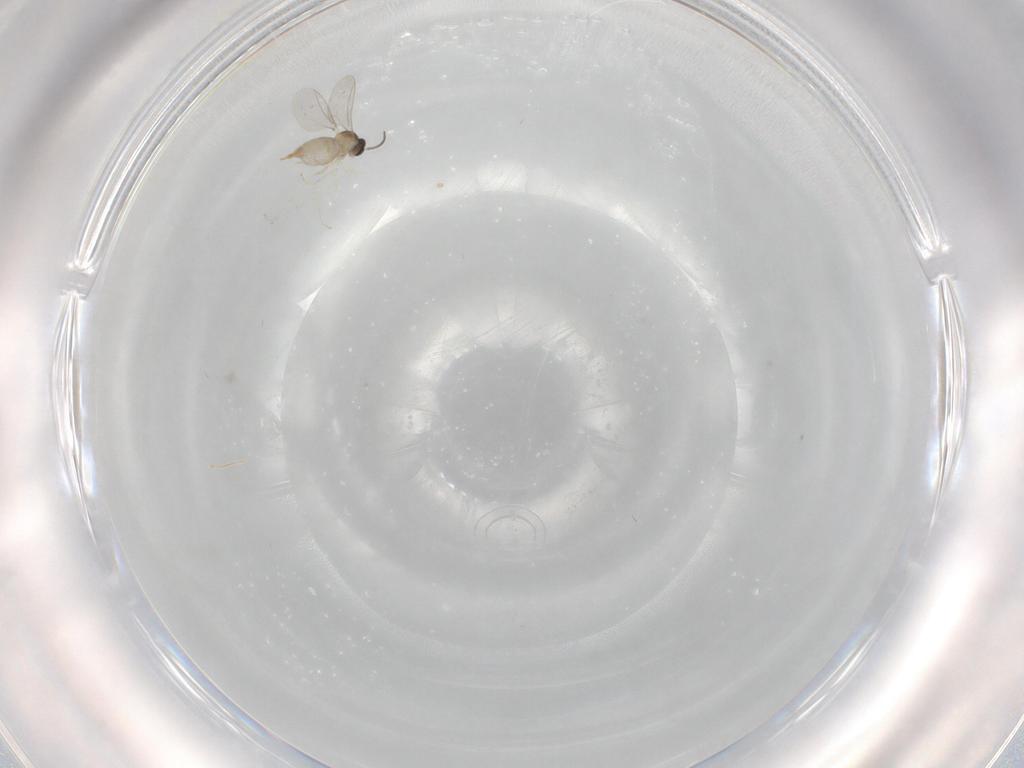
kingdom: Animalia
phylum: Arthropoda
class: Insecta
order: Diptera
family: Cecidomyiidae
